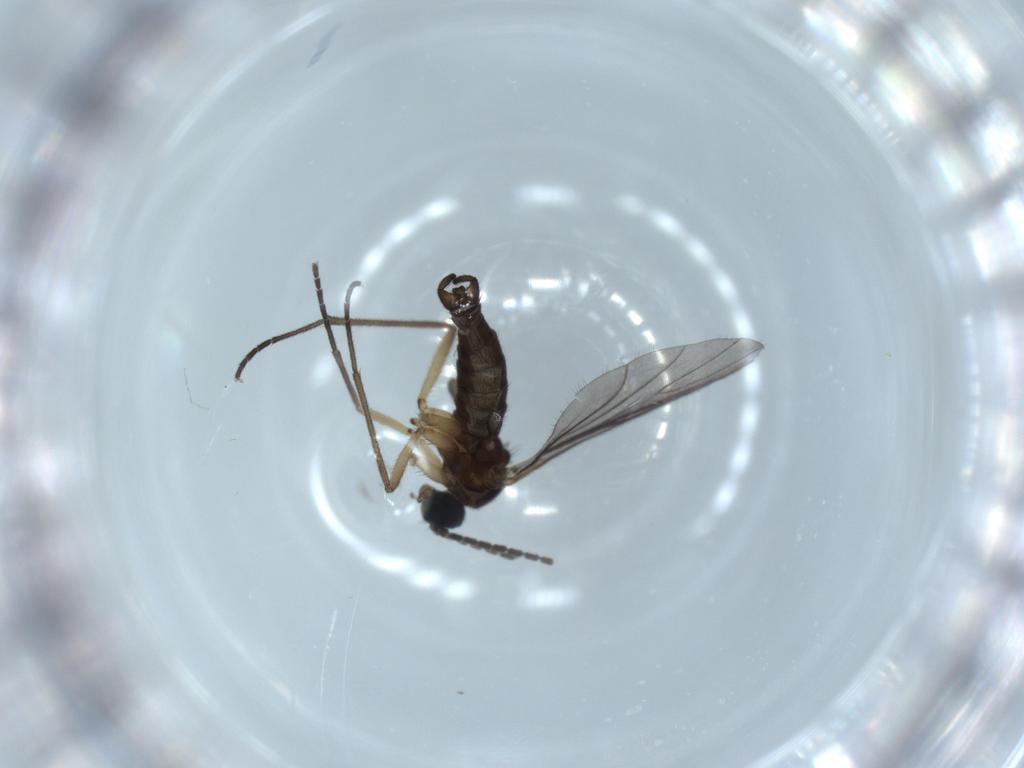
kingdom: Animalia
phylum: Arthropoda
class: Insecta
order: Diptera
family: Sciaridae
